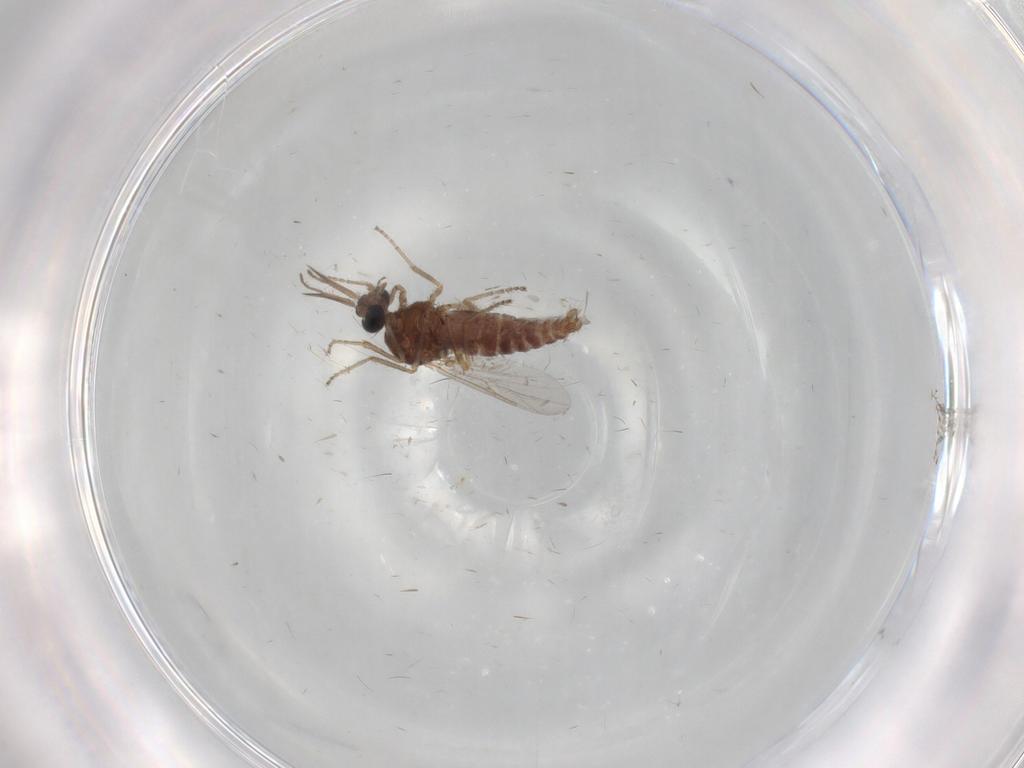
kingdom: Animalia
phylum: Arthropoda
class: Insecta
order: Diptera
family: Ceratopogonidae
